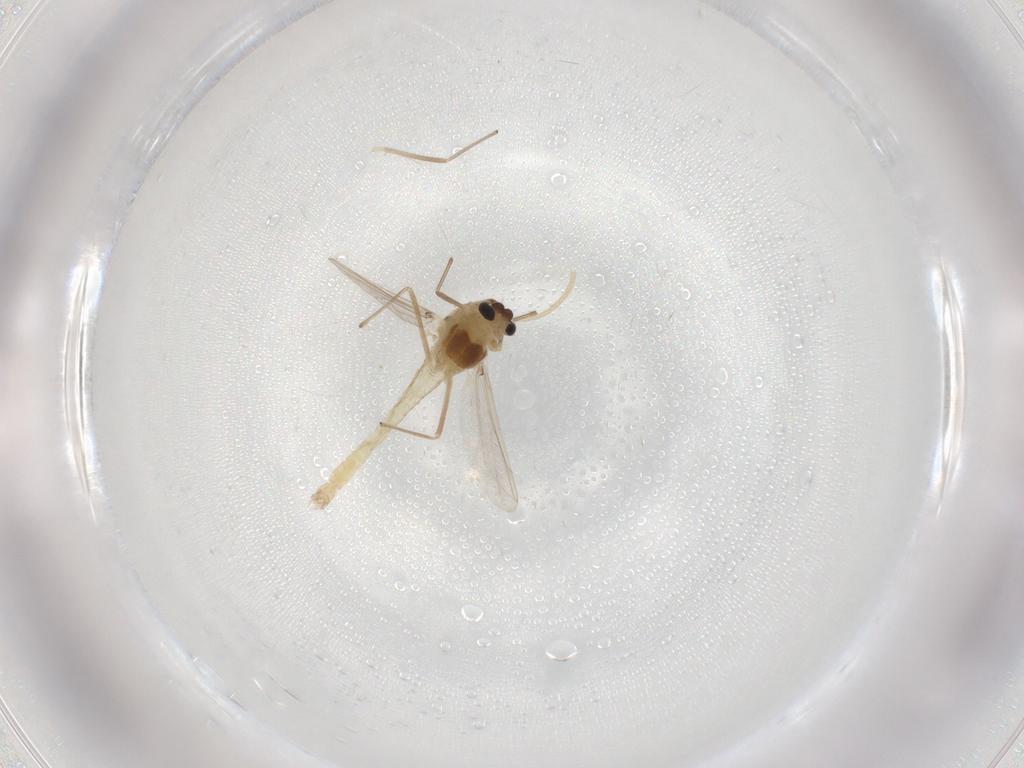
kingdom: Animalia
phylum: Arthropoda
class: Insecta
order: Diptera
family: Chironomidae
